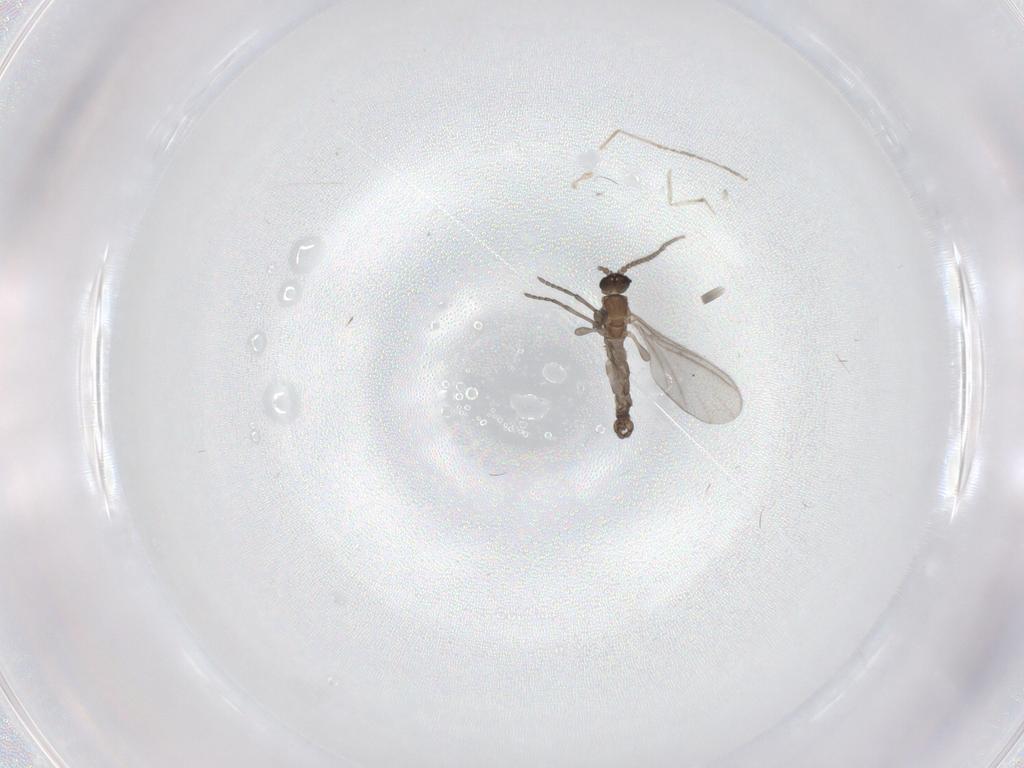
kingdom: Animalia
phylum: Arthropoda
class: Insecta
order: Diptera
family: Sciaridae
